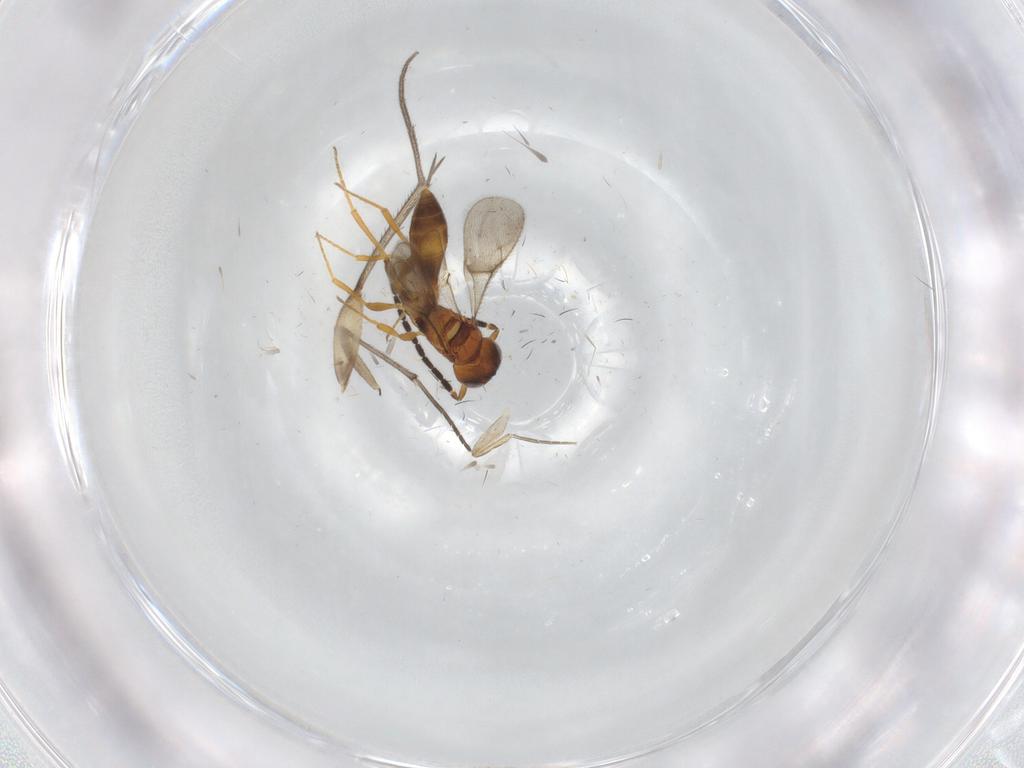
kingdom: Animalia
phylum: Arthropoda
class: Insecta
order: Hymenoptera
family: Scelionidae
